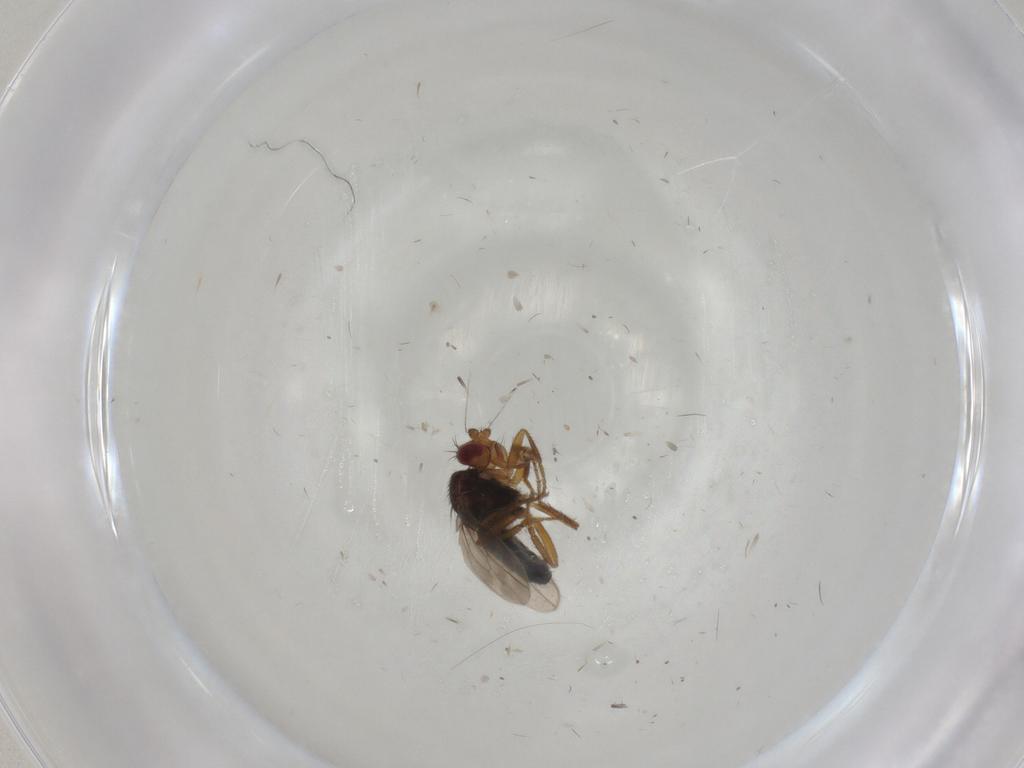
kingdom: Animalia
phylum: Arthropoda
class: Insecta
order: Diptera
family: Sphaeroceridae
